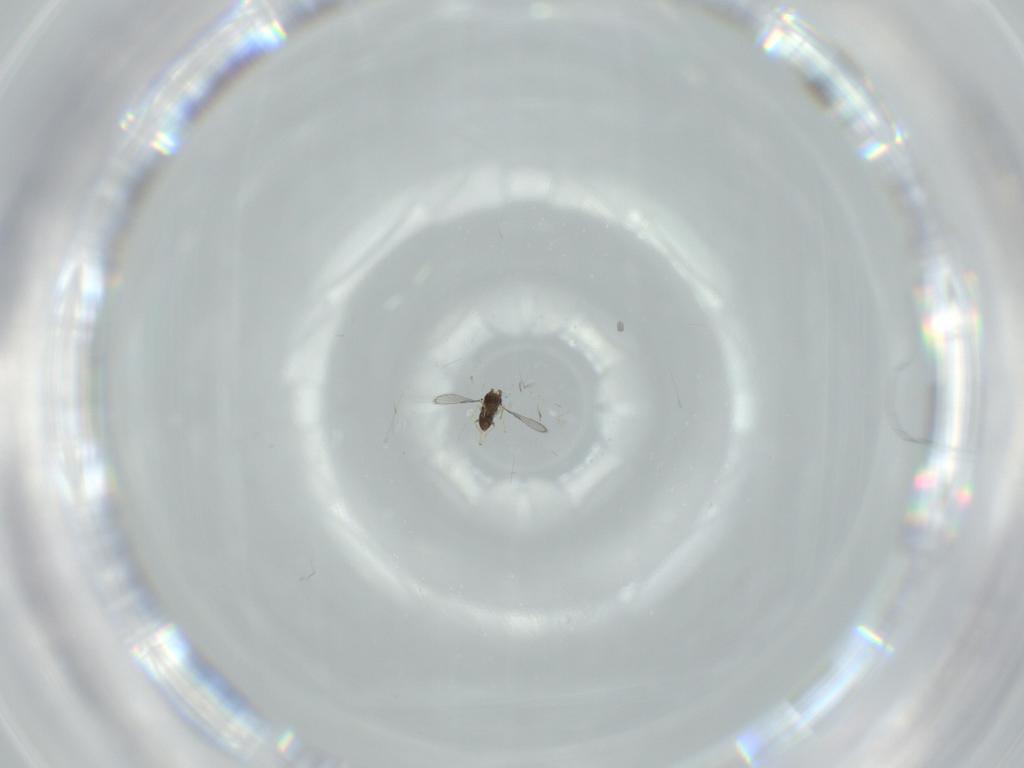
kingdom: Animalia
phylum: Arthropoda
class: Insecta
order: Hymenoptera
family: Trichogrammatidae
